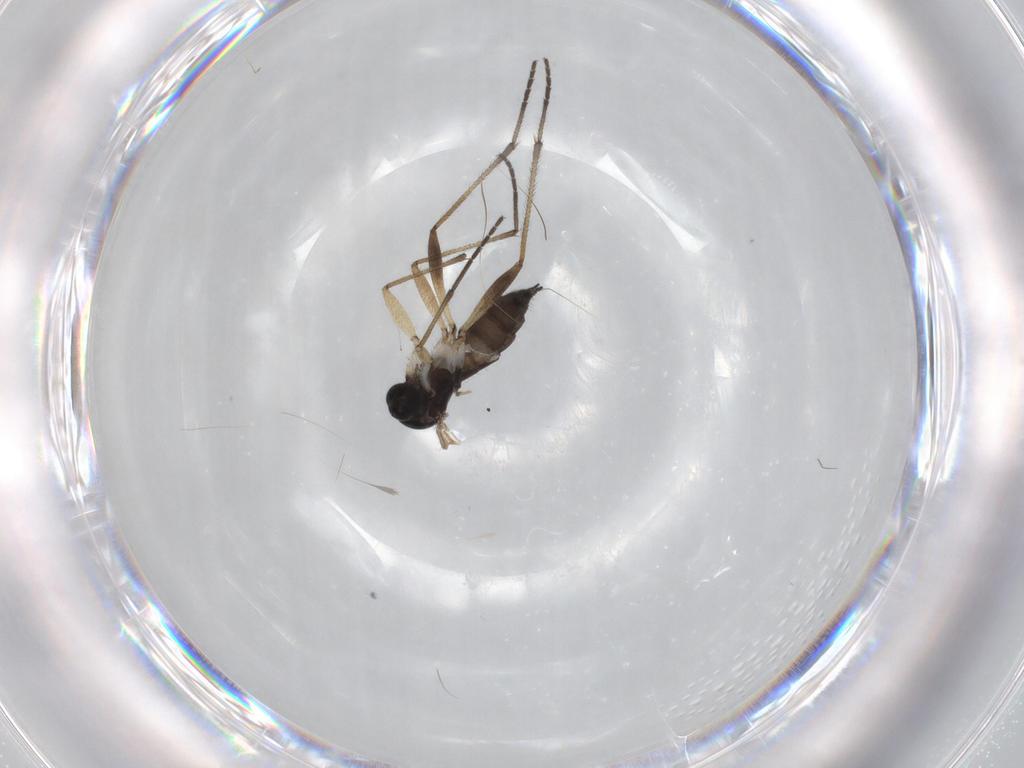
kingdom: Animalia
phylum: Arthropoda
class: Insecta
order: Diptera
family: Sciaridae
